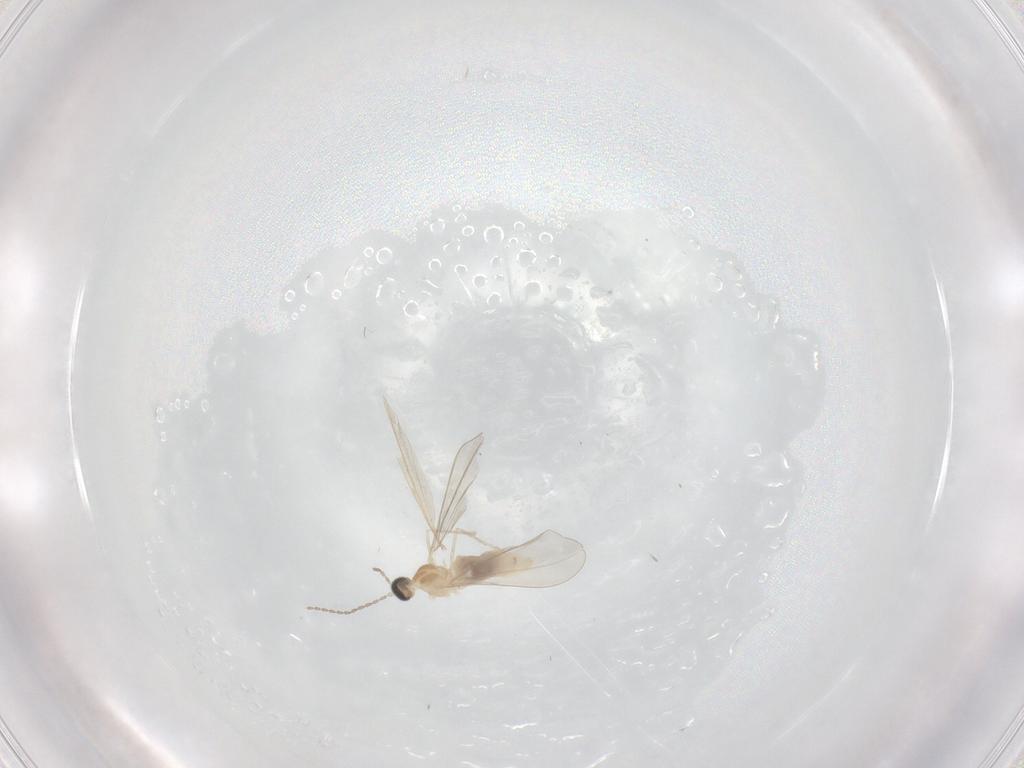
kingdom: Animalia
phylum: Arthropoda
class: Insecta
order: Diptera
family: Cecidomyiidae
